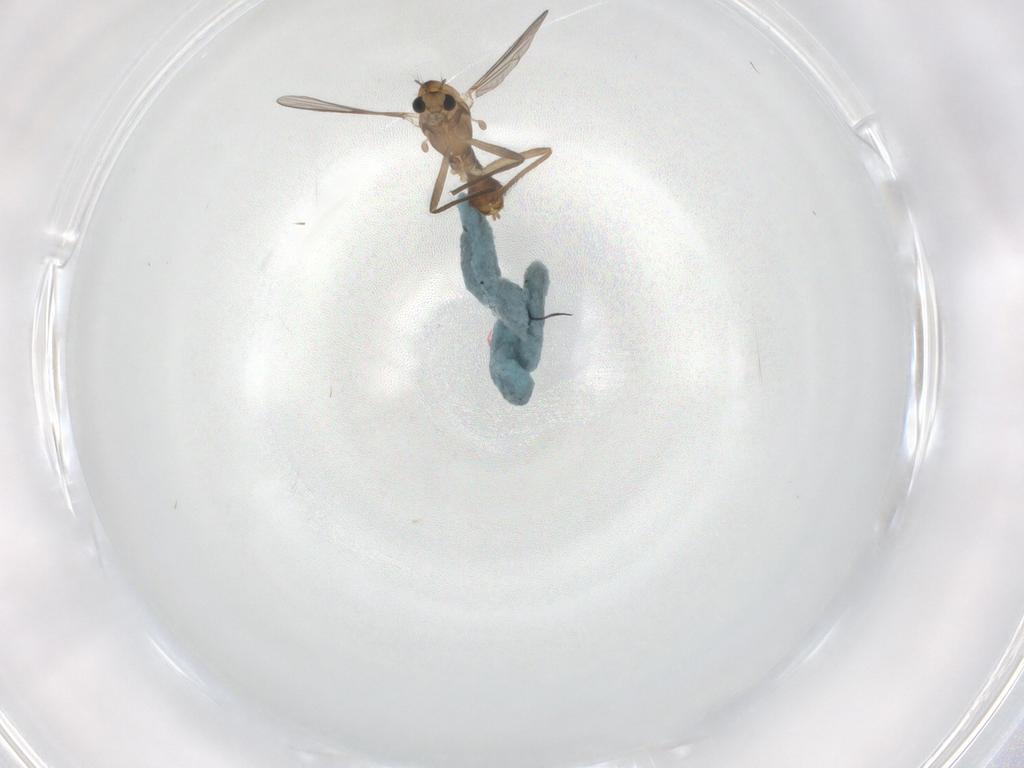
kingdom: Animalia
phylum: Arthropoda
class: Insecta
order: Diptera
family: Chironomidae
